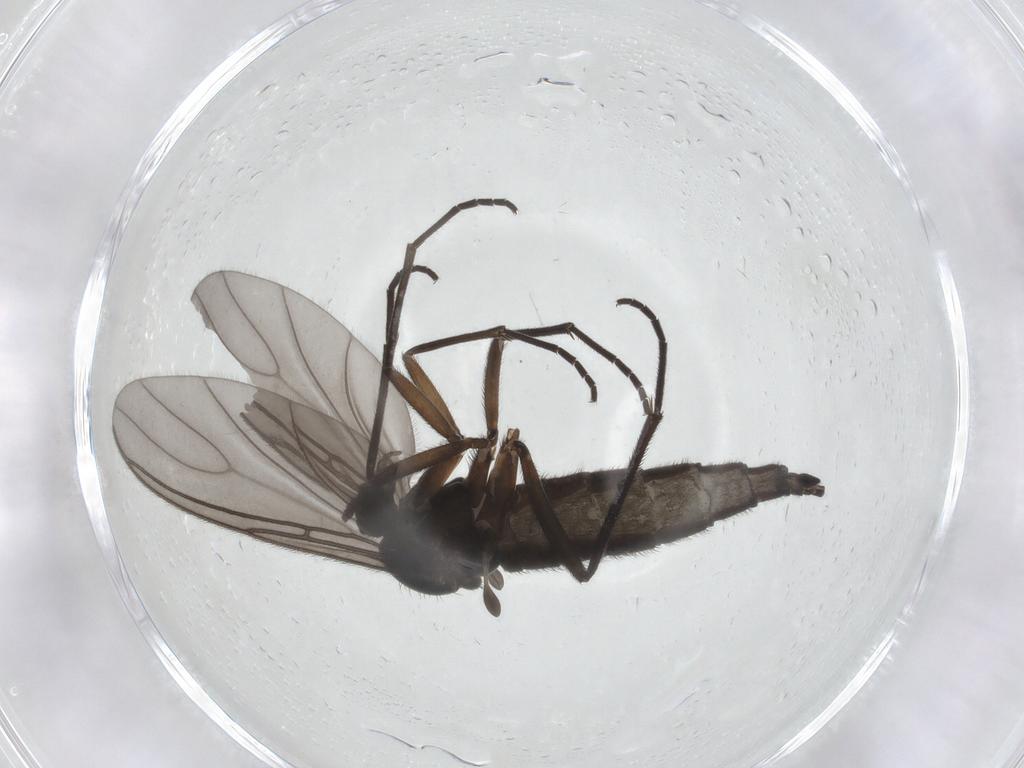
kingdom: Animalia
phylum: Arthropoda
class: Insecta
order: Diptera
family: Sciaridae
